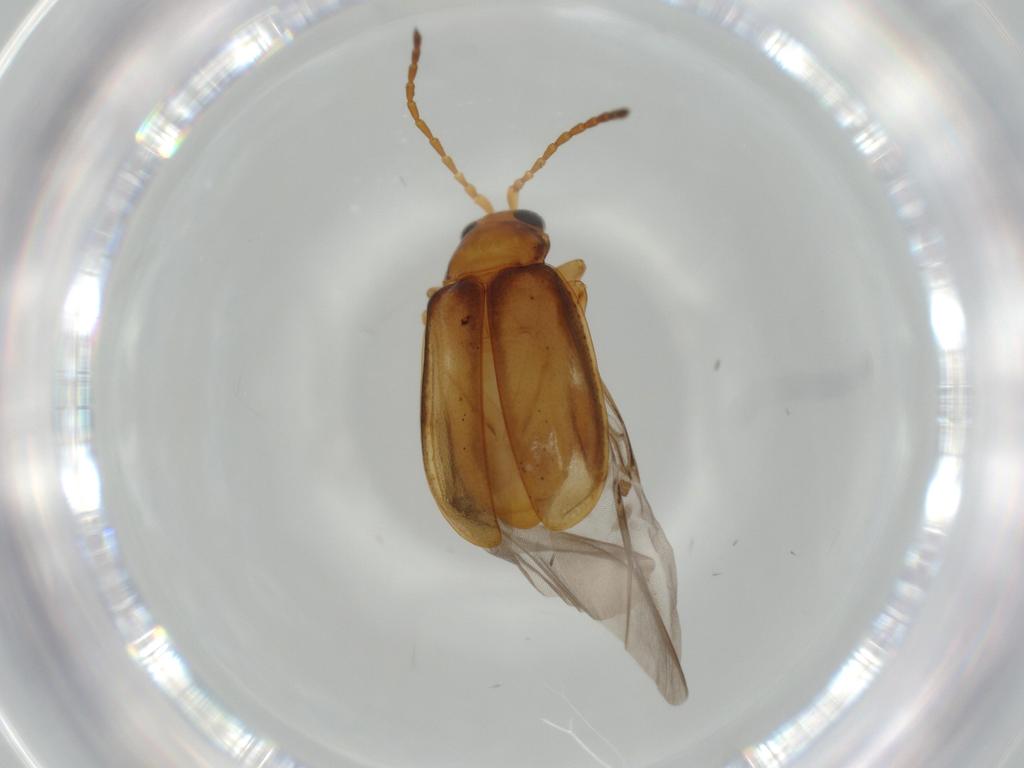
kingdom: Animalia
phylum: Arthropoda
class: Insecta
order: Coleoptera
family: Chrysomelidae
